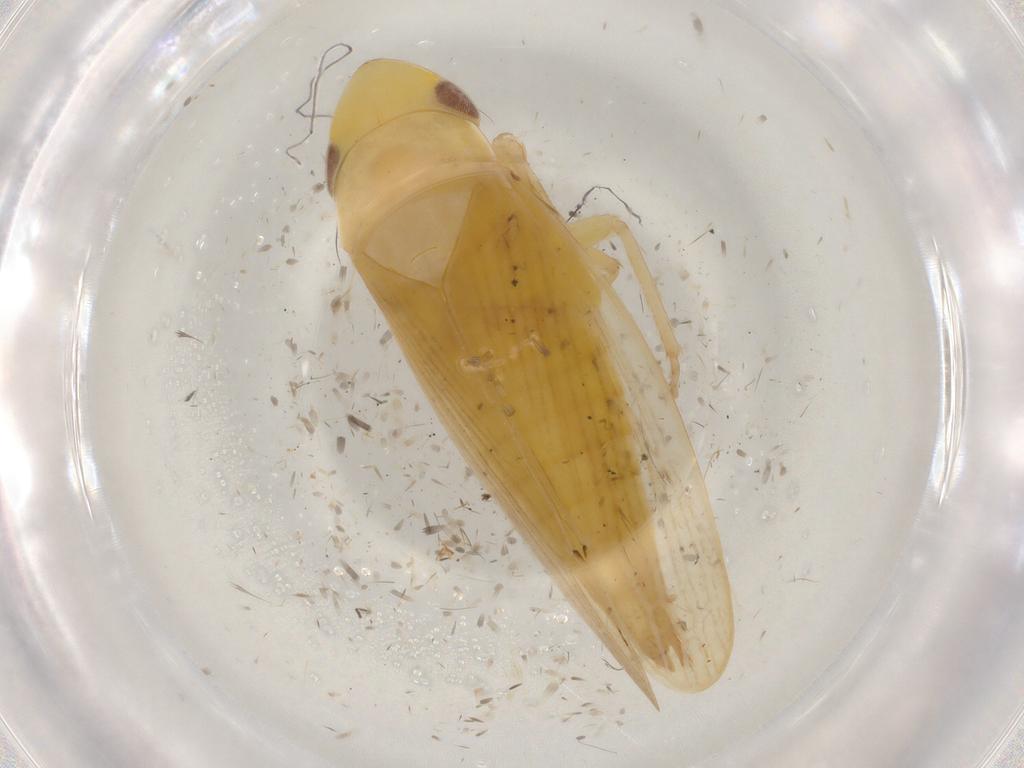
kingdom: Animalia
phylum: Arthropoda
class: Insecta
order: Hemiptera
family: Cicadellidae
